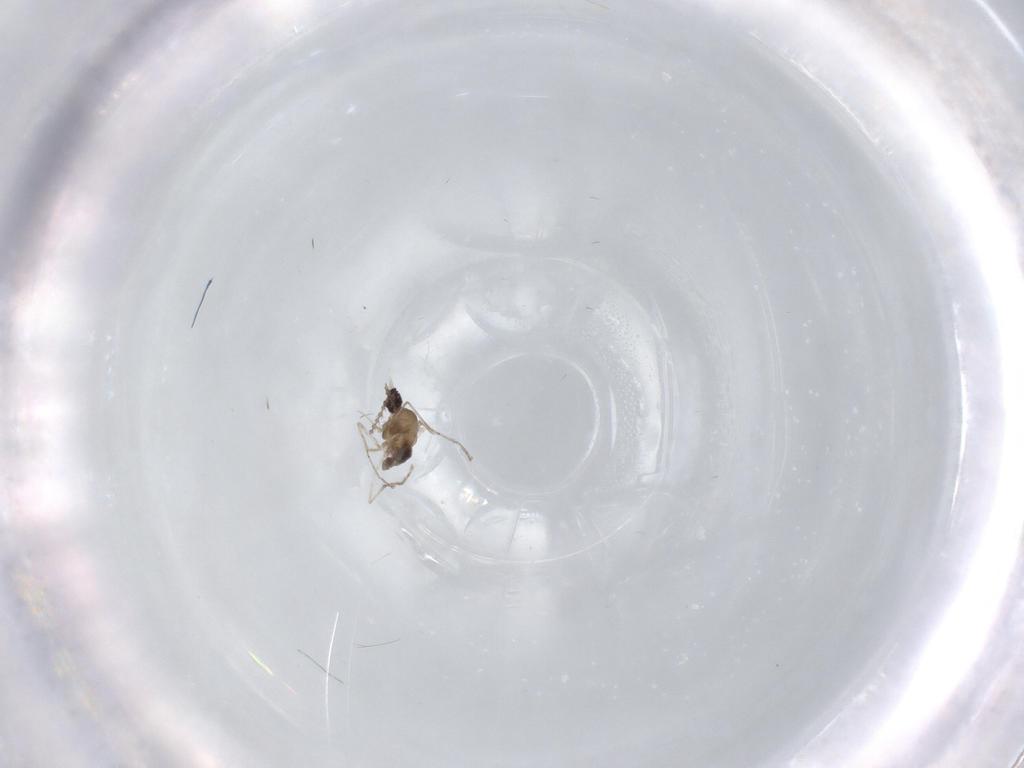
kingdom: Animalia
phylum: Arthropoda
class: Insecta
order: Diptera
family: Cecidomyiidae
